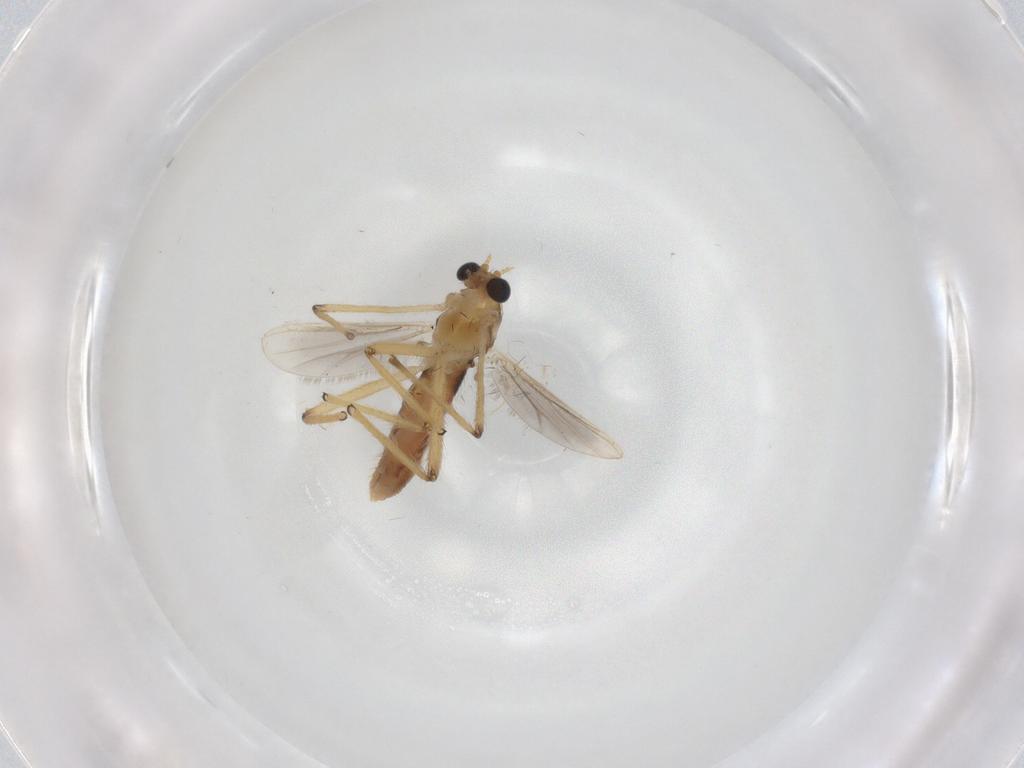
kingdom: Animalia
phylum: Arthropoda
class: Insecta
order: Diptera
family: Chironomidae
